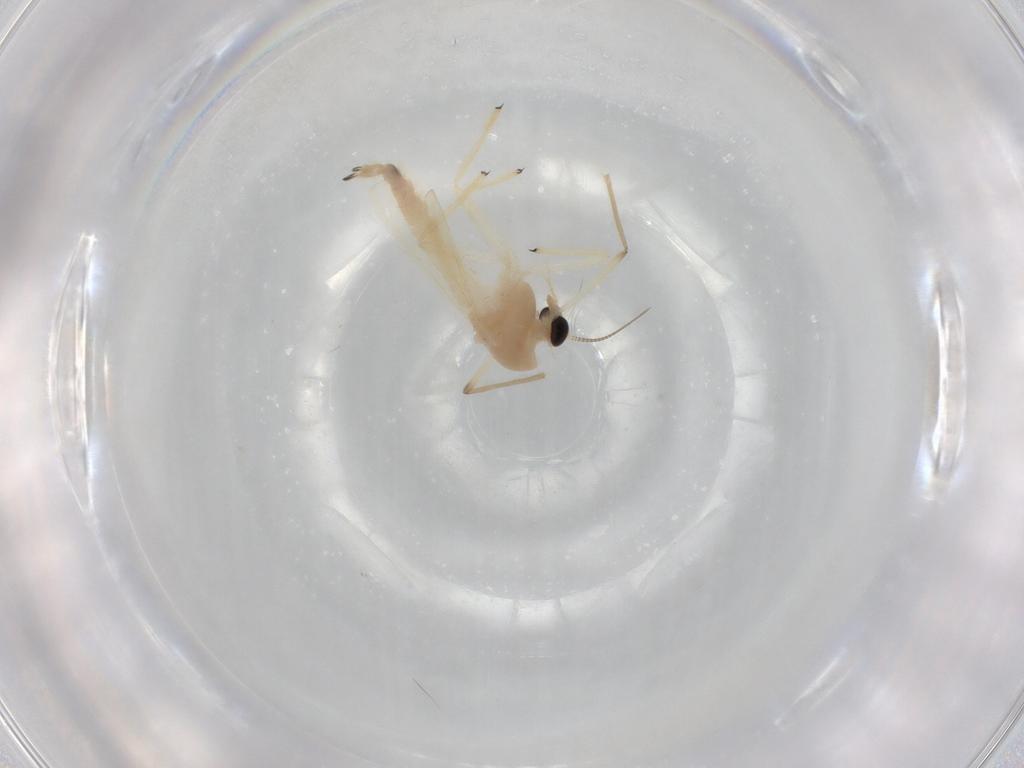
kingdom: Animalia
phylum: Arthropoda
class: Insecta
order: Diptera
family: Chironomidae
